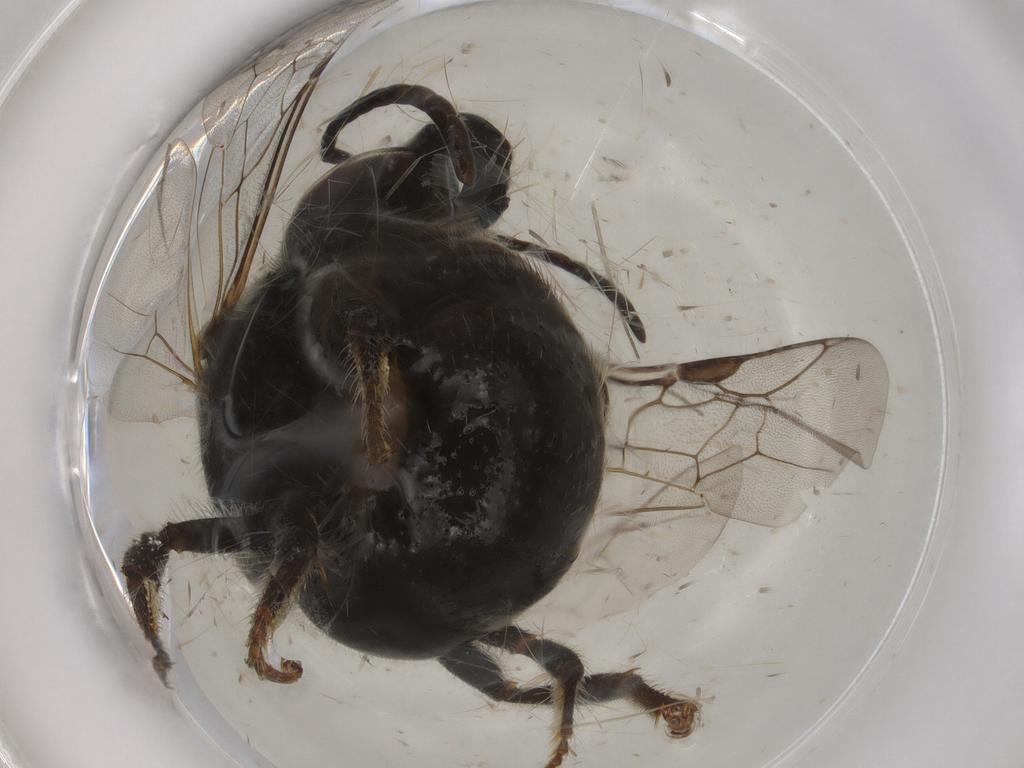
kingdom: Animalia
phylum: Arthropoda
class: Insecta
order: Hymenoptera
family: Halictidae
